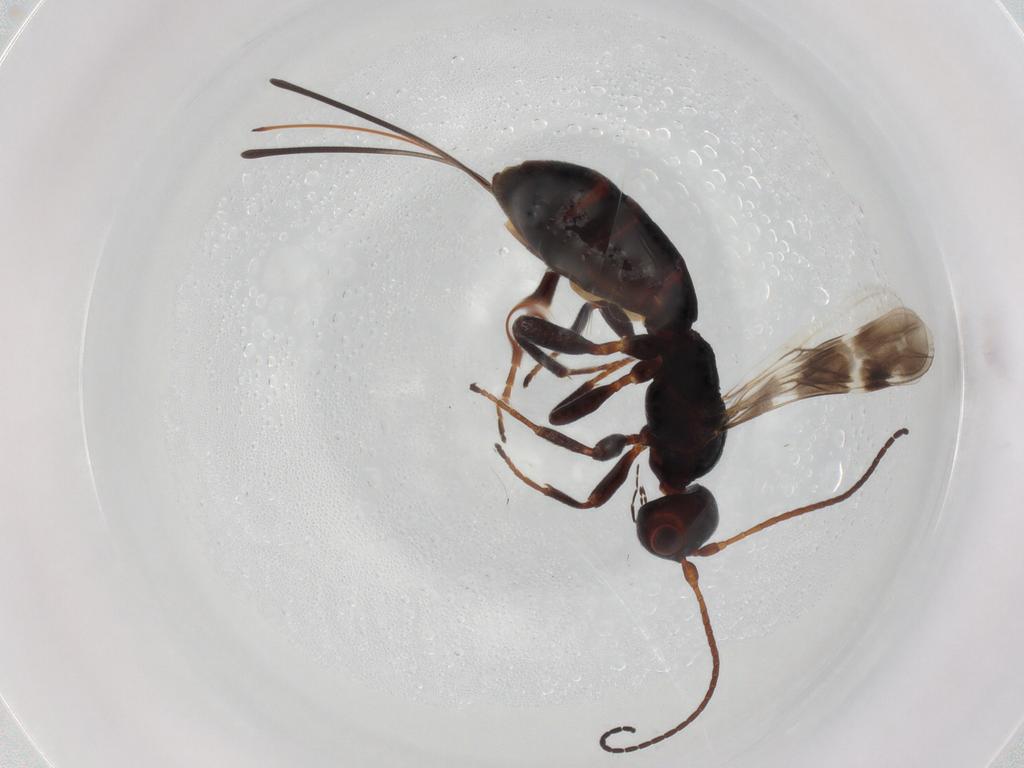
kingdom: Animalia
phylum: Arthropoda
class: Insecta
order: Hymenoptera
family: Braconidae
